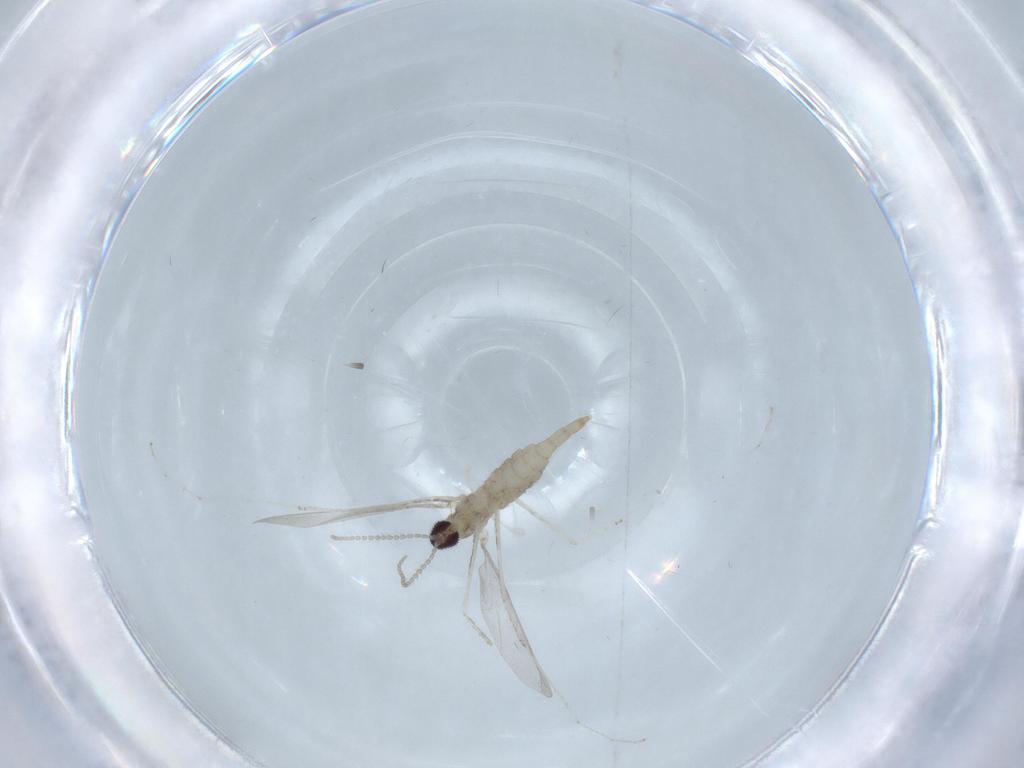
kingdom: Animalia
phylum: Arthropoda
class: Insecta
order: Diptera
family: Cecidomyiidae
